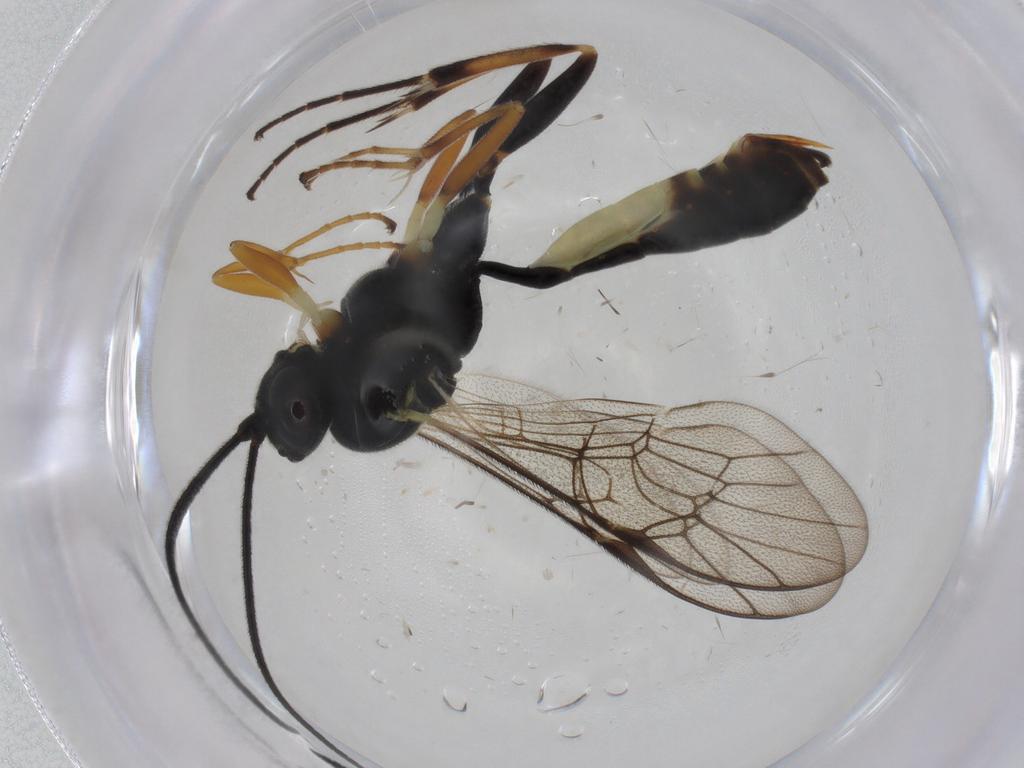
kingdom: Animalia
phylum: Arthropoda
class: Insecta
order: Hymenoptera
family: Ichneumonidae
